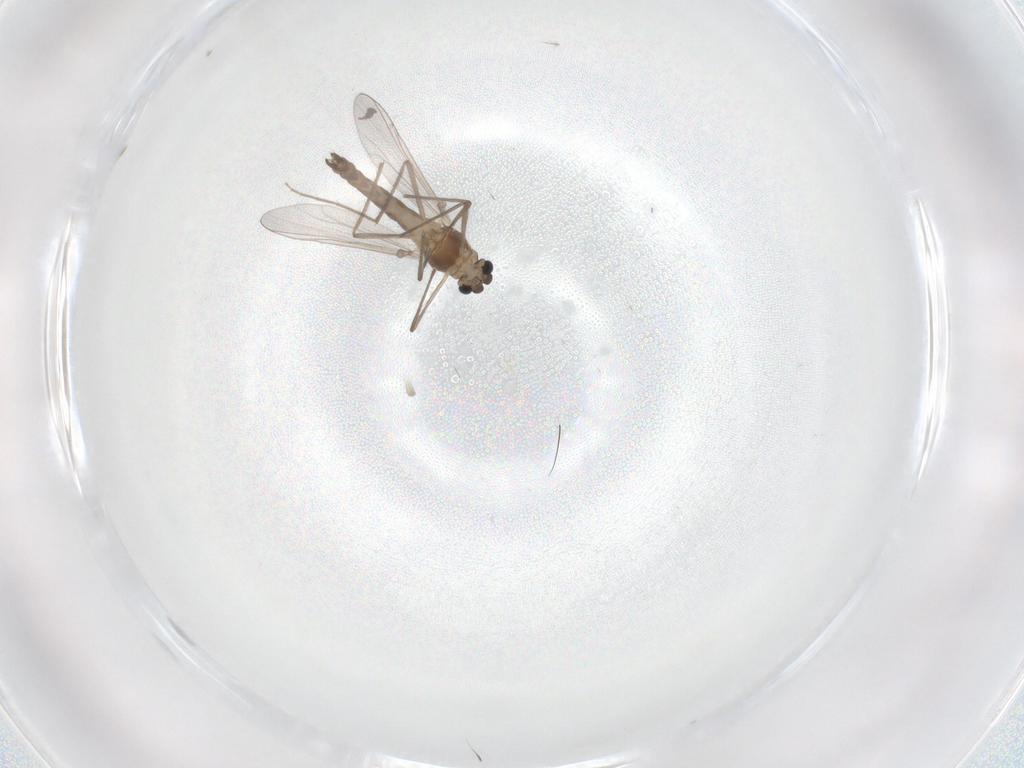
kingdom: Animalia
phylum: Arthropoda
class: Insecta
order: Diptera
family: Chironomidae
